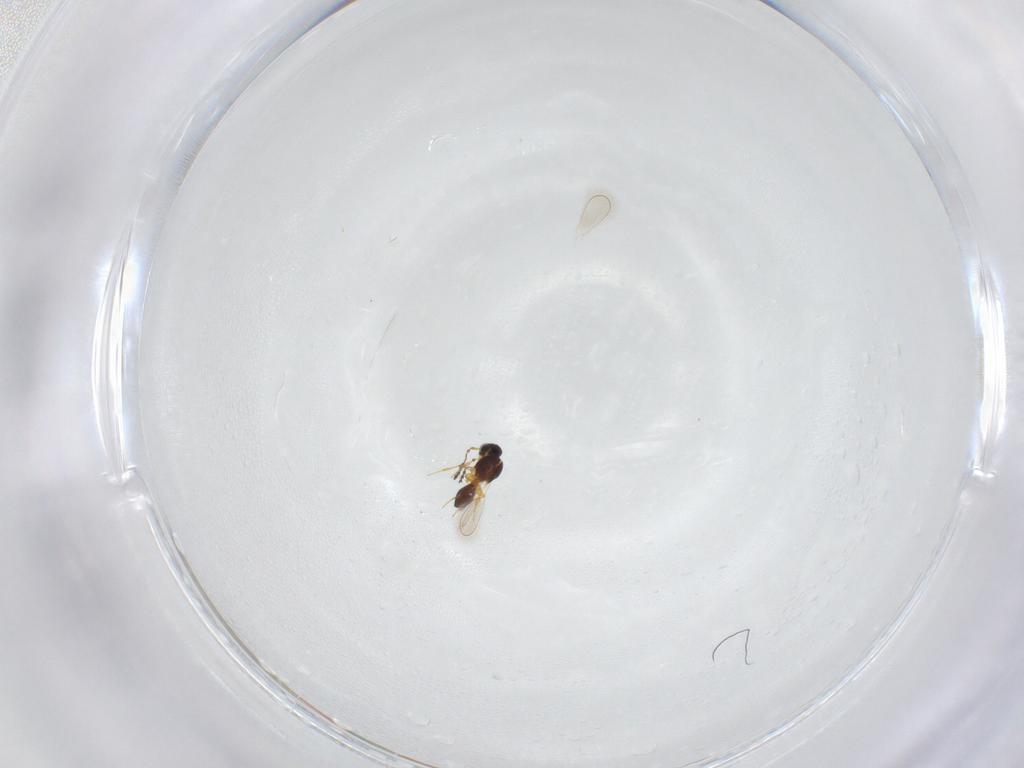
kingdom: Animalia
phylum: Arthropoda
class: Insecta
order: Hymenoptera
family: Platygastridae
